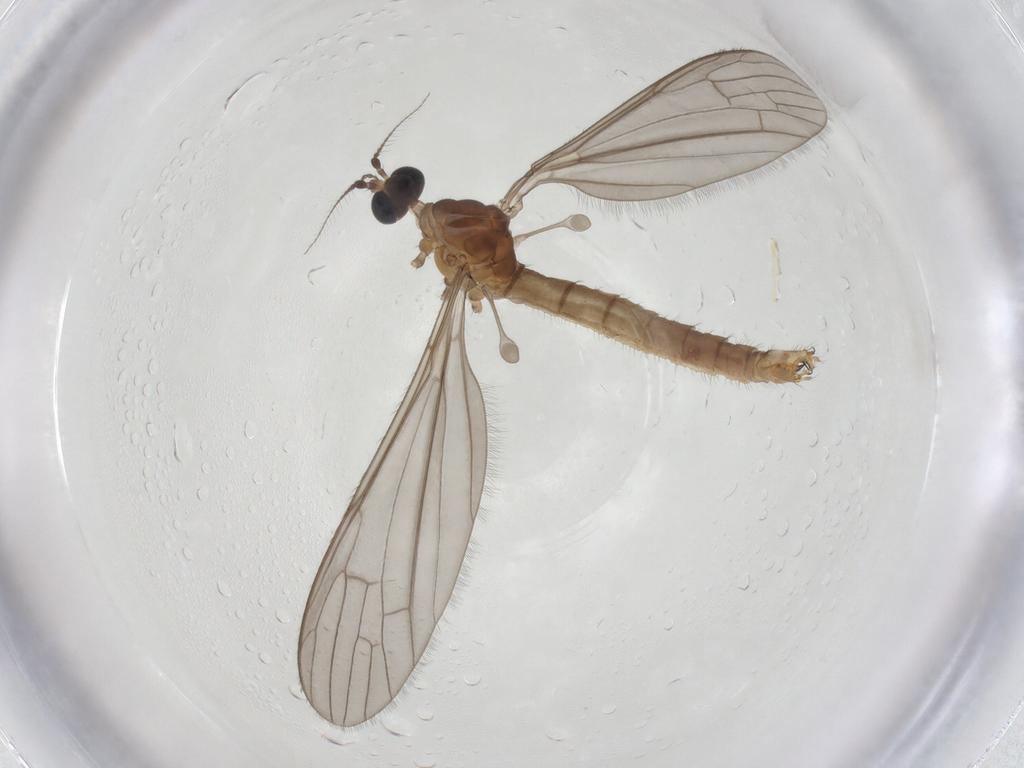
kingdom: Animalia
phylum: Arthropoda
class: Insecta
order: Diptera
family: Limoniidae
